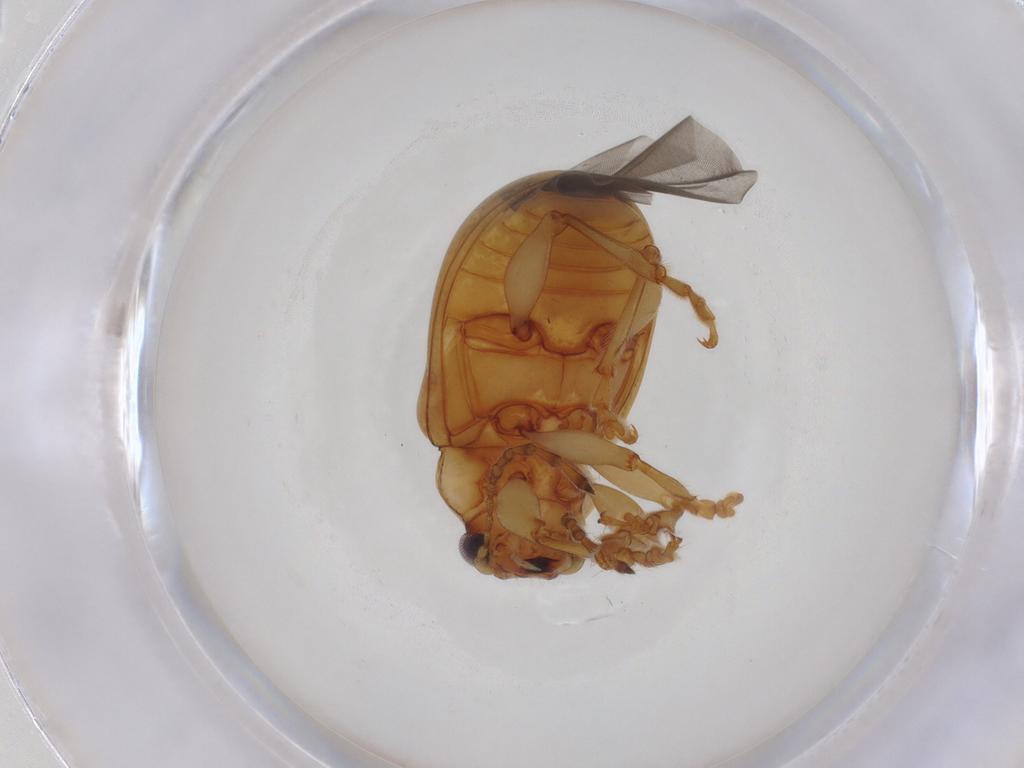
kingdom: Animalia
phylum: Arthropoda
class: Insecta
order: Coleoptera
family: Chrysomelidae
